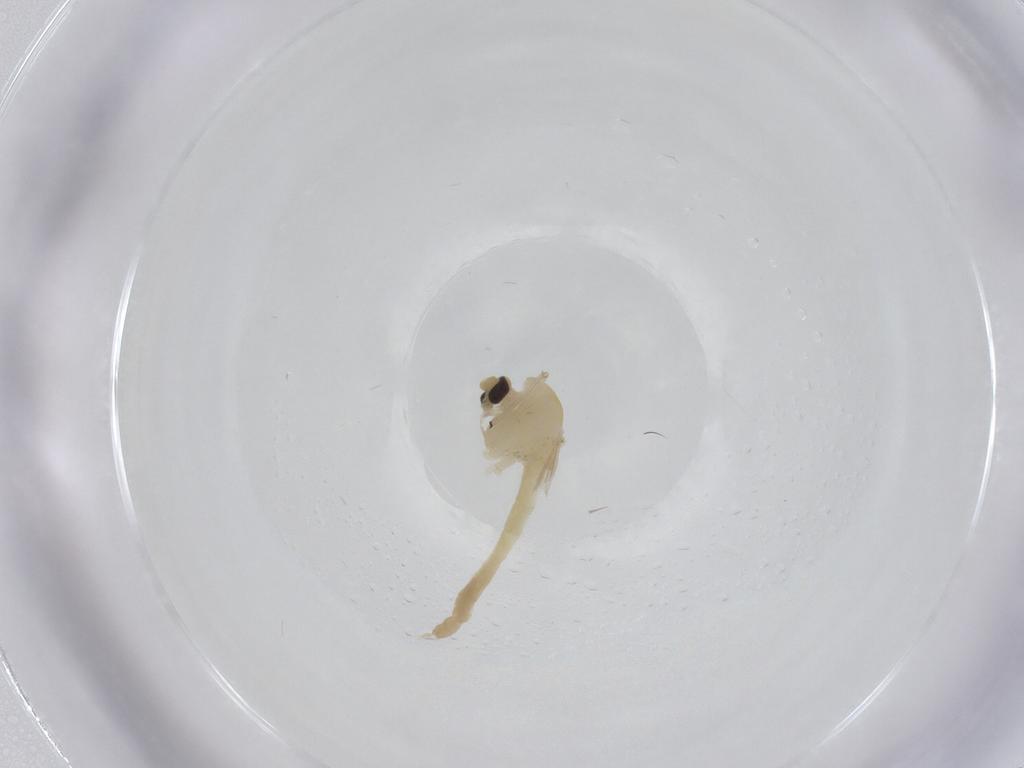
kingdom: Animalia
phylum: Arthropoda
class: Insecta
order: Diptera
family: Chironomidae
